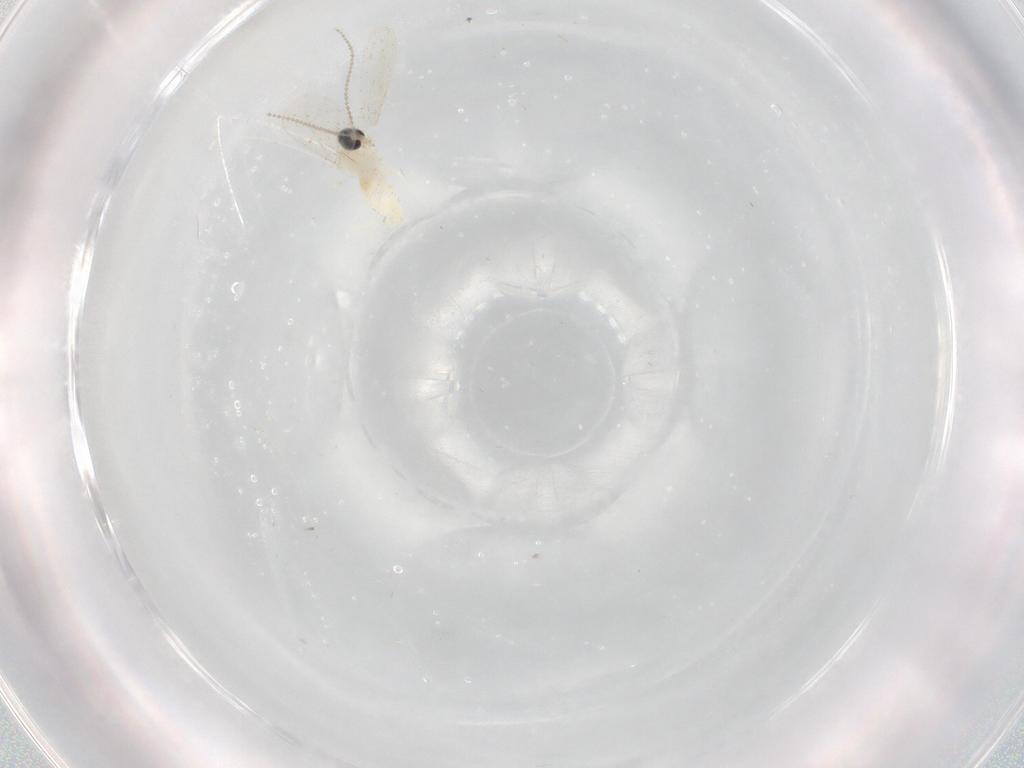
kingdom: Animalia
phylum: Arthropoda
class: Insecta
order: Diptera
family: Cecidomyiidae
